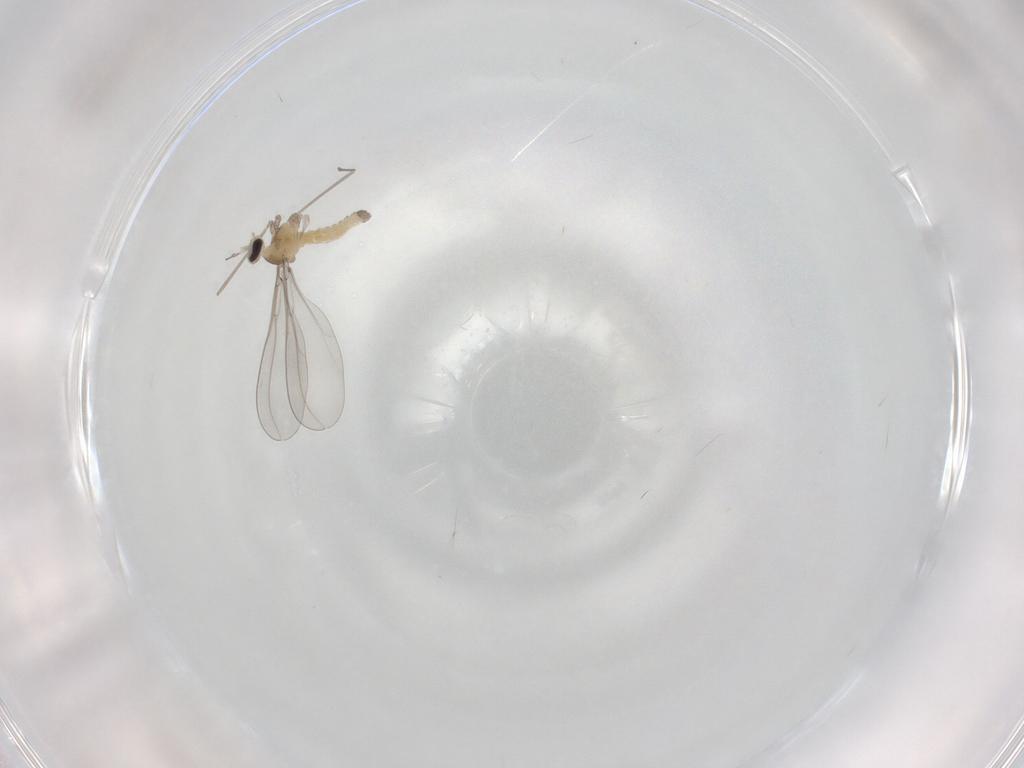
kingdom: Animalia
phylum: Arthropoda
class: Insecta
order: Diptera
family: Cecidomyiidae
